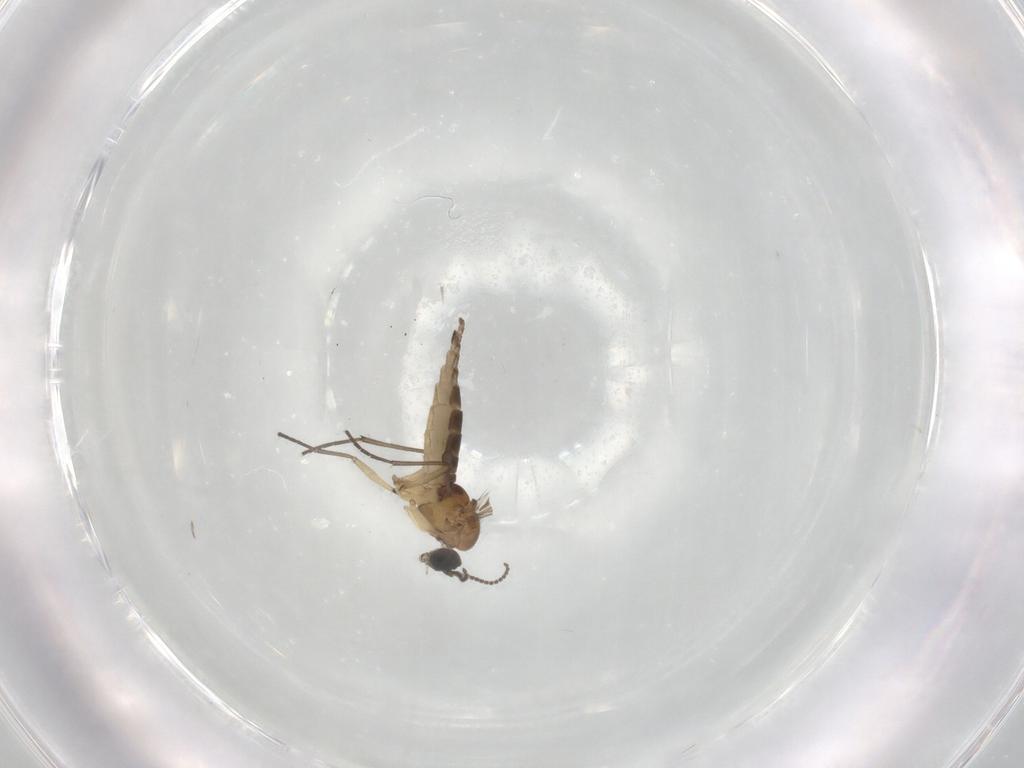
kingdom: Animalia
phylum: Arthropoda
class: Insecta
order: Diptera
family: Sciaridae
